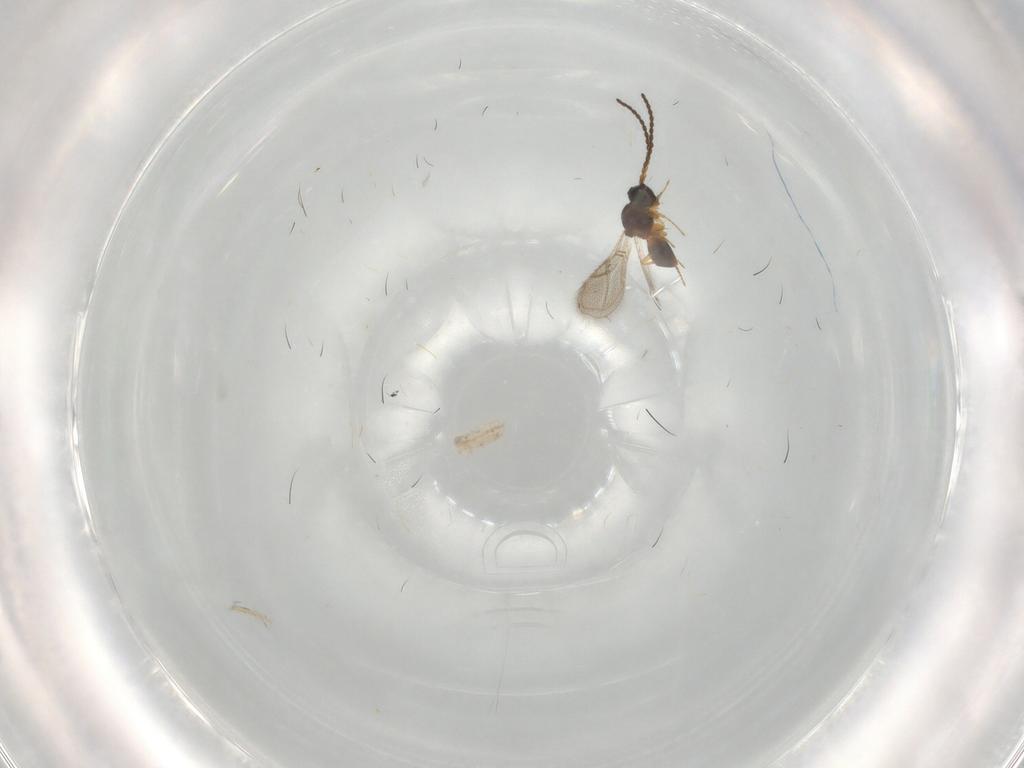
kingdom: Animalia
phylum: Arthropoda
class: Insecta
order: Hymenoptera
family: Figitidae
